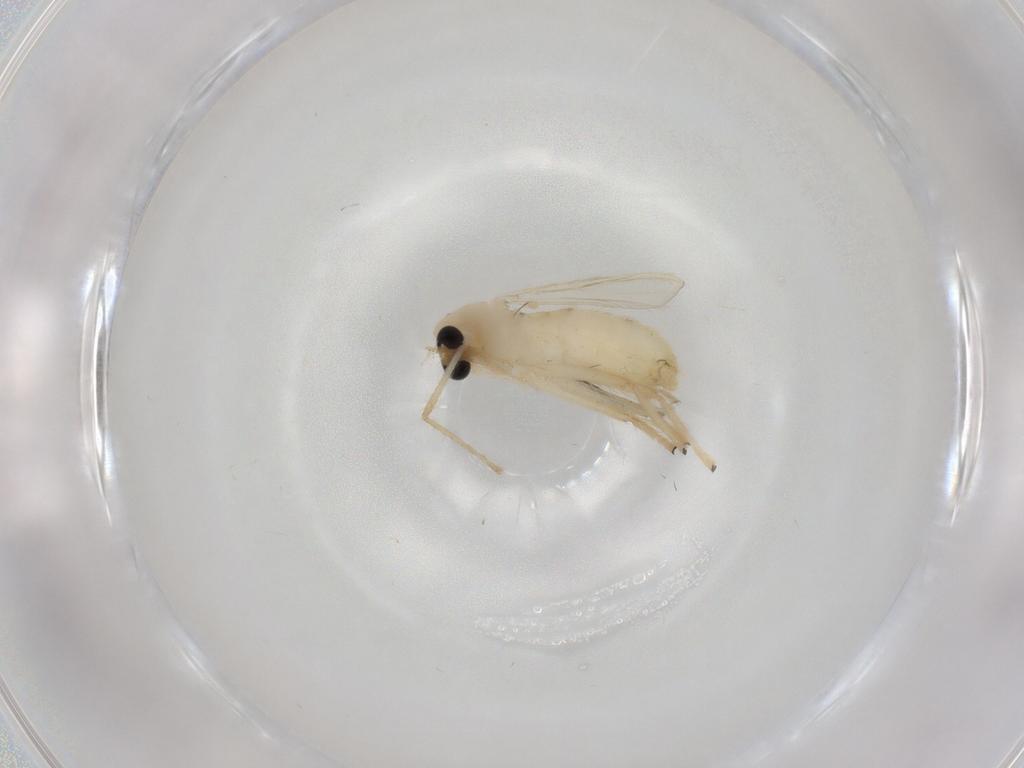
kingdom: Animalia
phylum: Arthropoda
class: Insecta
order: Diptera
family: Chironomidae
